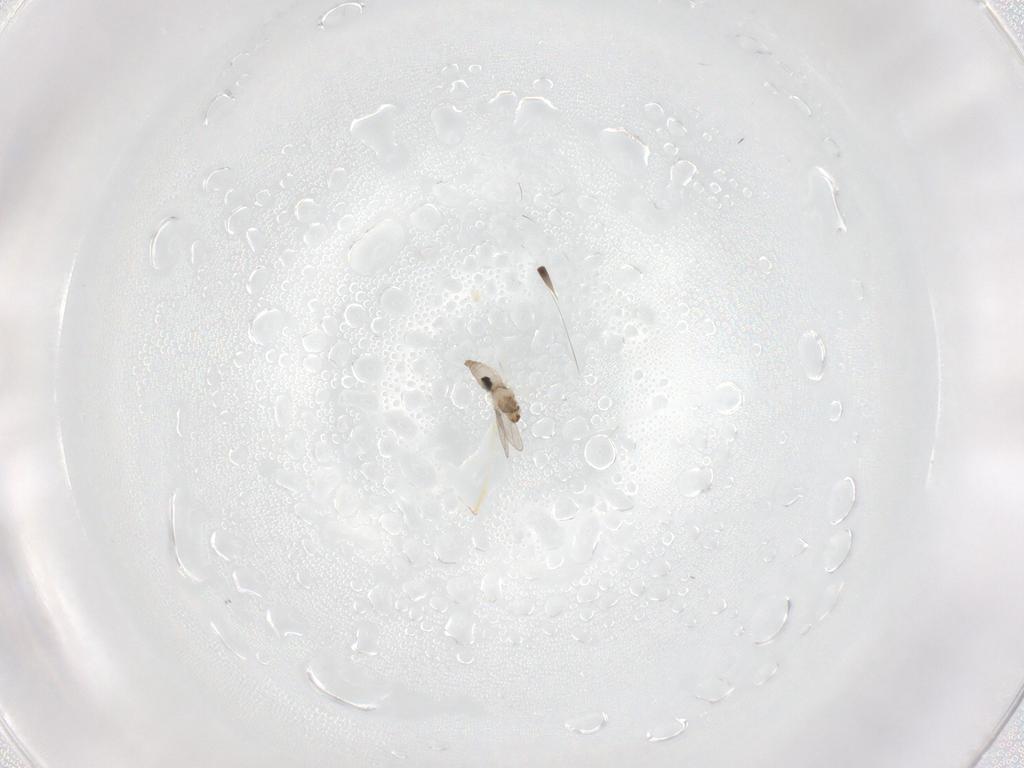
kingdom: Animalia
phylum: Arthropoda
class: Insecta
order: Diptera
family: Cecidomyiidae
